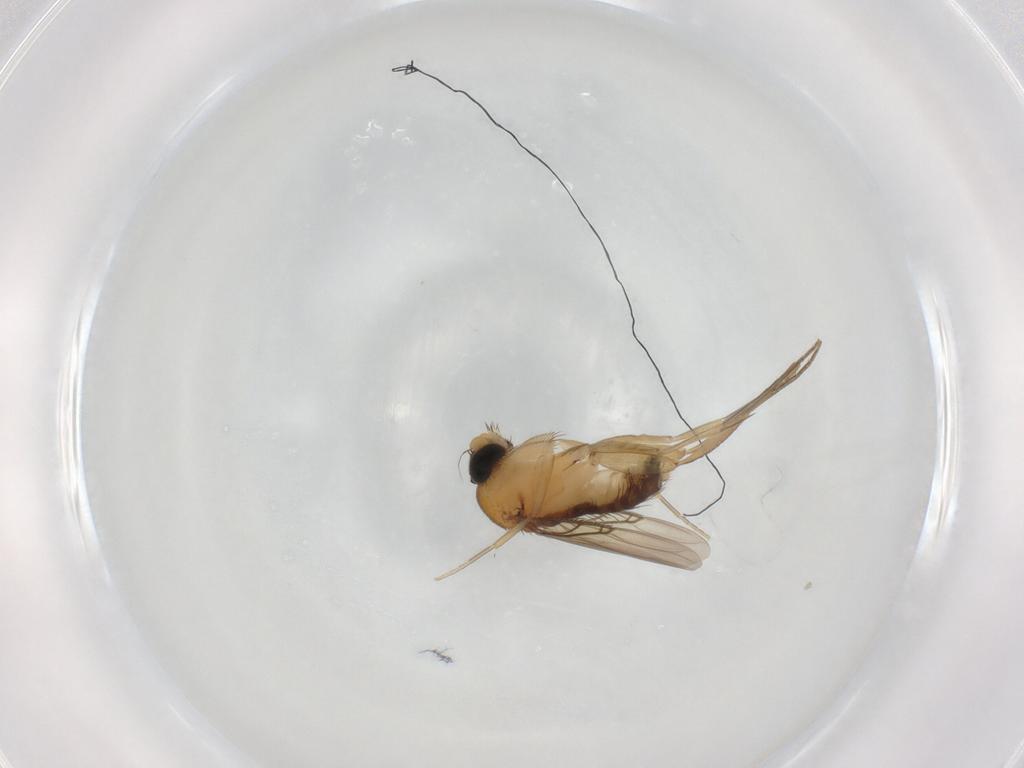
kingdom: Animalia
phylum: Arthropoda
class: Insecta
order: Diptera
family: Phoridae
